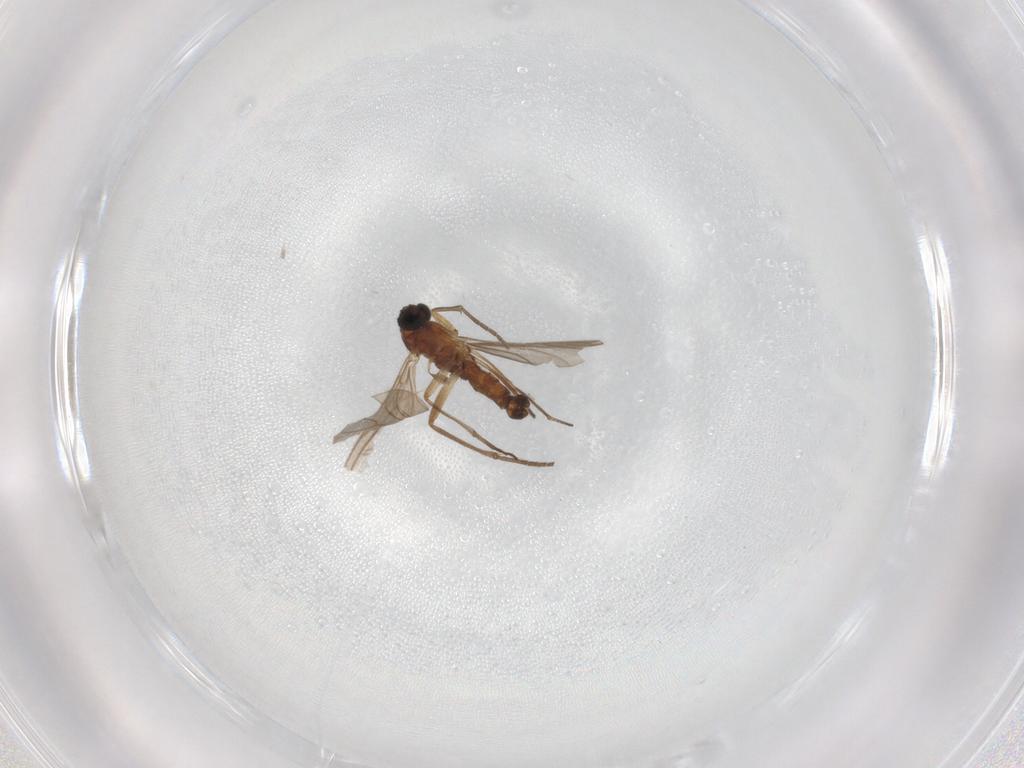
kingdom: Animalia
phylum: Arthropoda
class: Insecta
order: Diptera
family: Sciaridae
